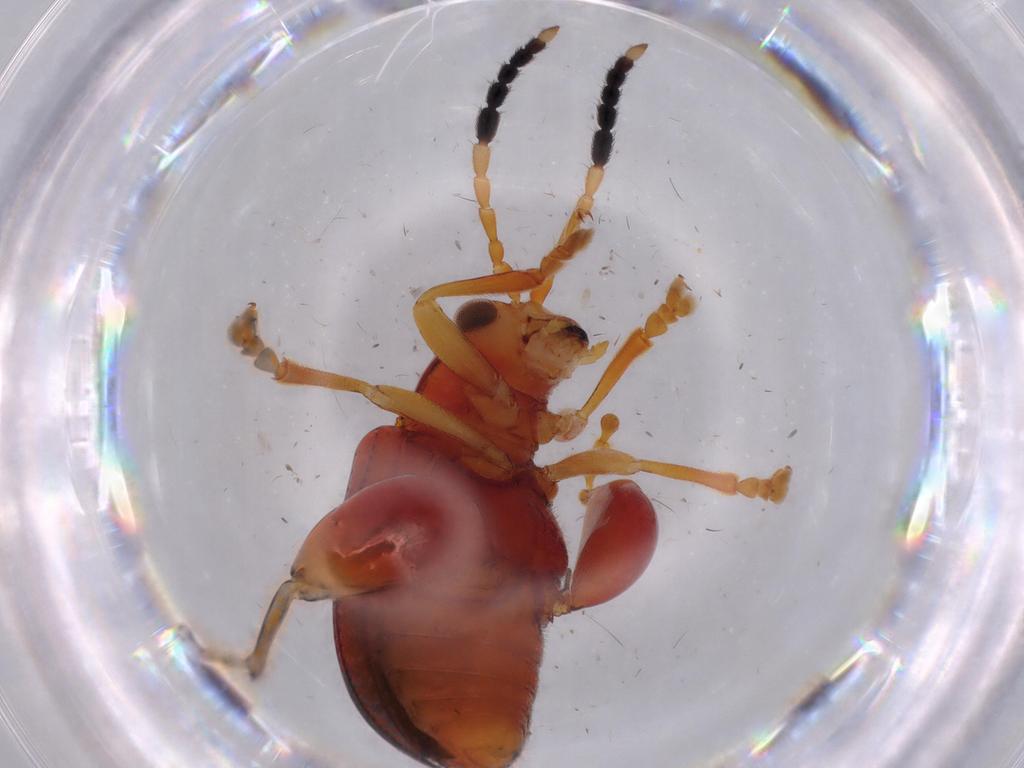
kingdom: Animalia
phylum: Arthropoda
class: Insecta
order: Coleoptera
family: Chrysomelidae
